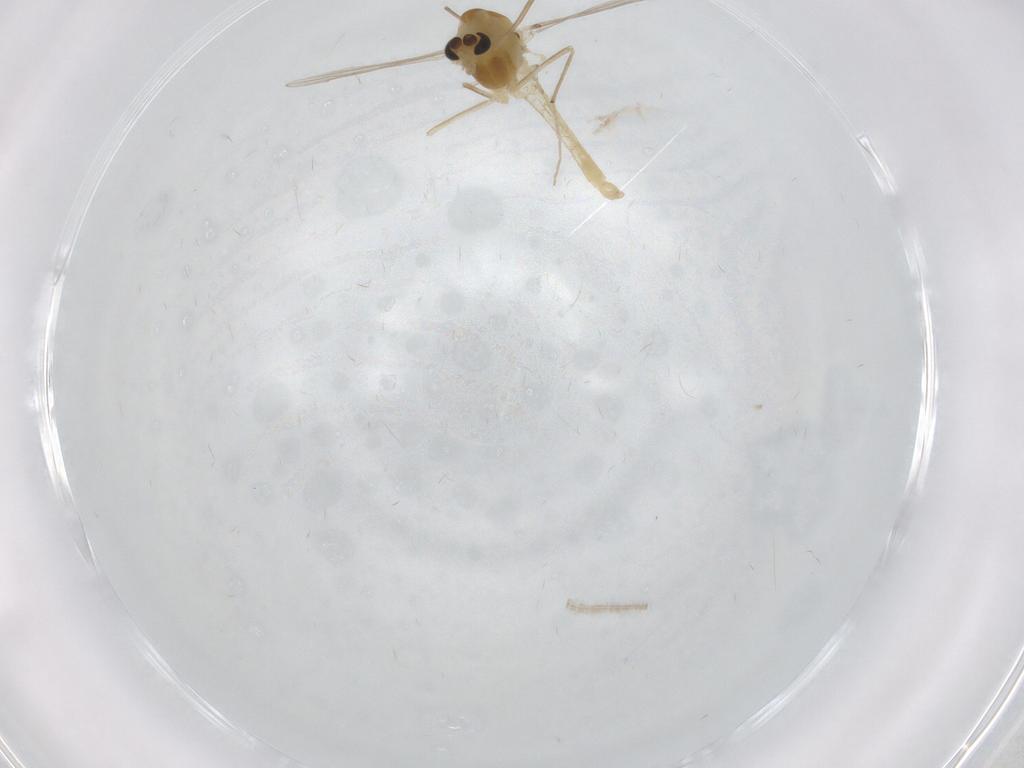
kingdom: Animalia
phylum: Arthropoda
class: Insecta
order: Diptera
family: Chironomidae
